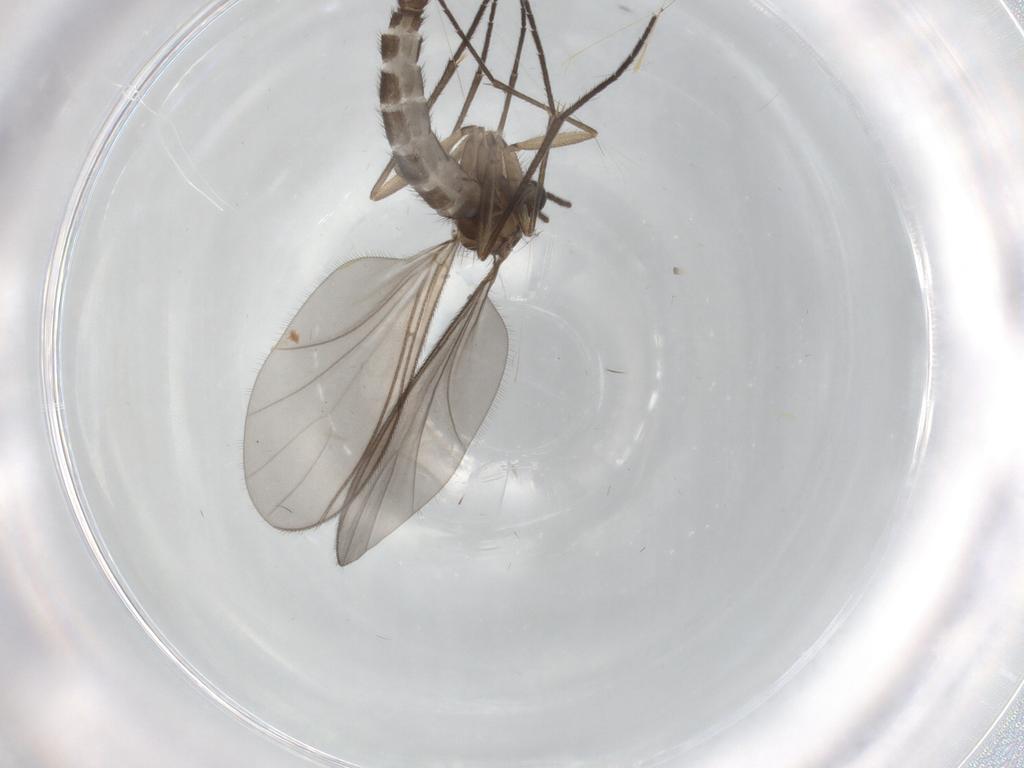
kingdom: Animalia
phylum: Arthropoda
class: Insecta
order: Diptera
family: Sciaridae
